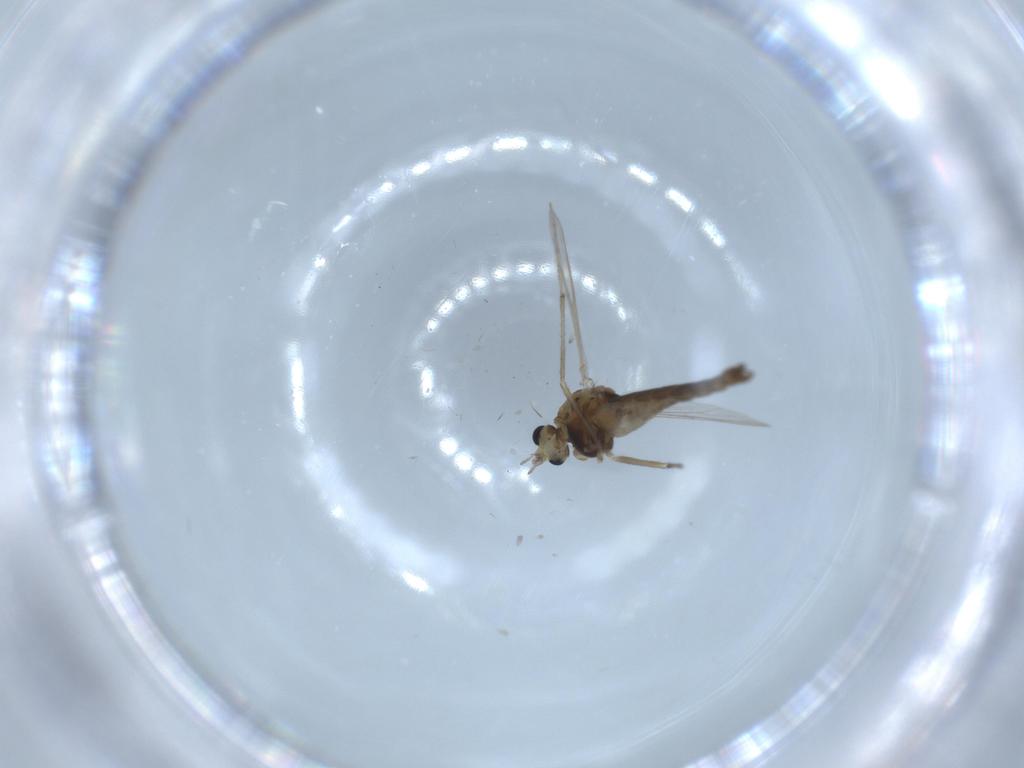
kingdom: Animalia
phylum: Arthropoda
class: Insecta
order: Diptera
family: Chironomidae
